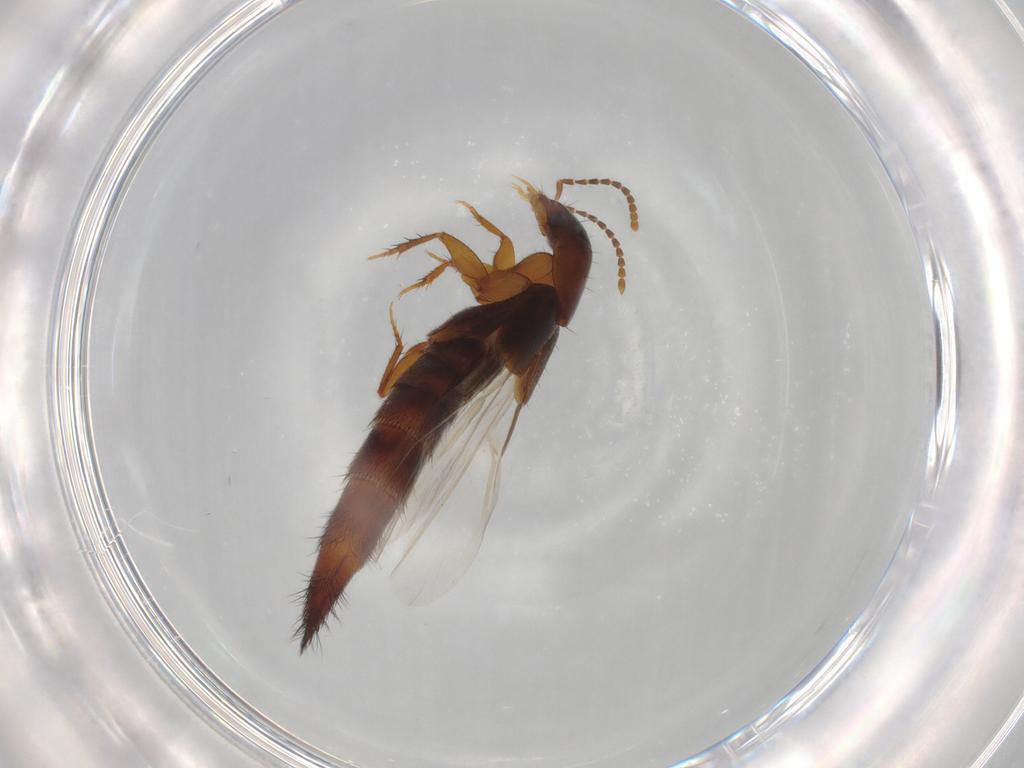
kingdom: Animalia
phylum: Arthropoda
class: Insecta
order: Coleoptera
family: Staphylinidae
